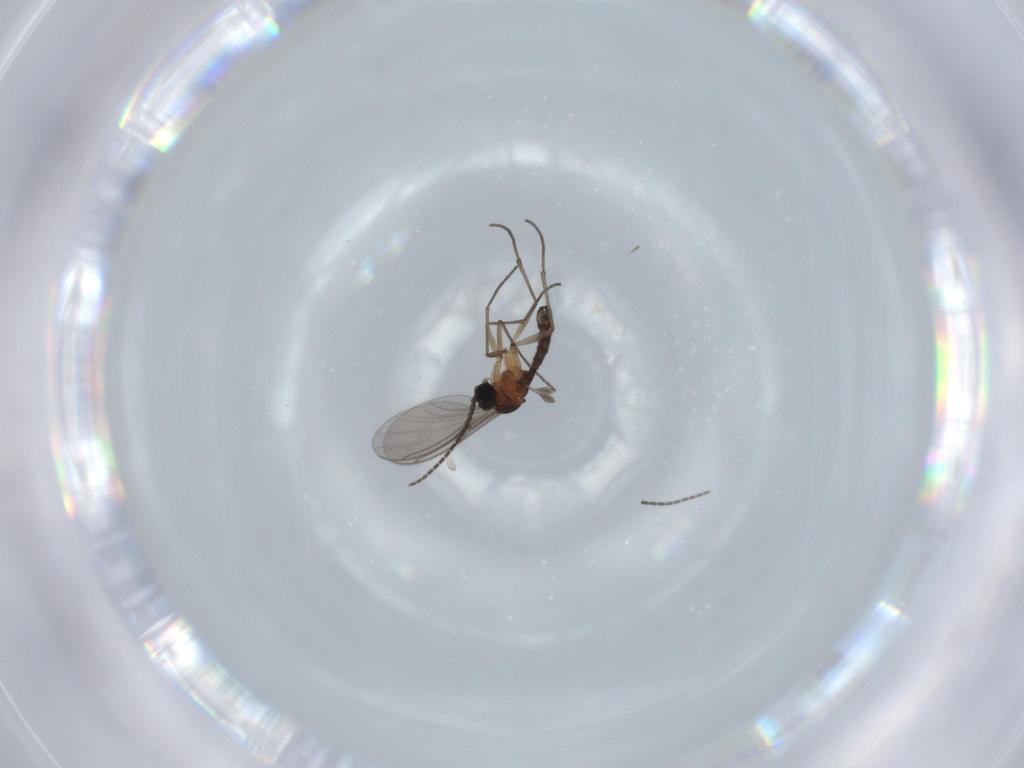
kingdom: Animalia
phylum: Arthropoda
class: Insecta
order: Diptera
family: Sciaridae
